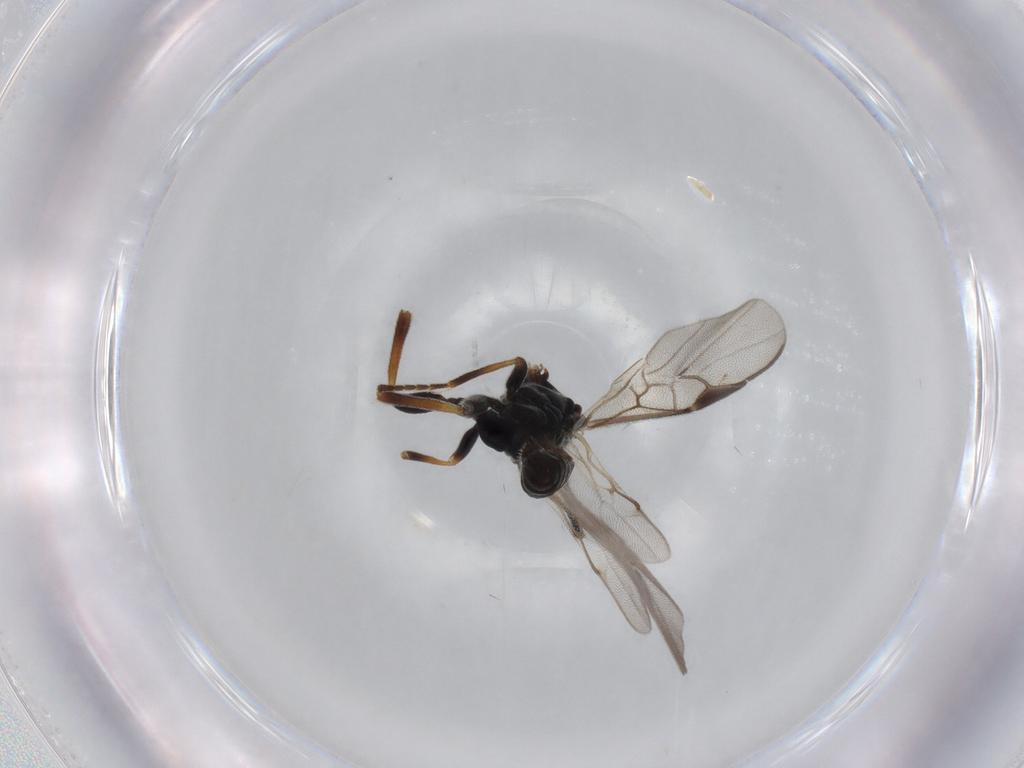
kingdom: Animalia
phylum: Arthropoda
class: Insecta
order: Hymenoptera
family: Braconidae
